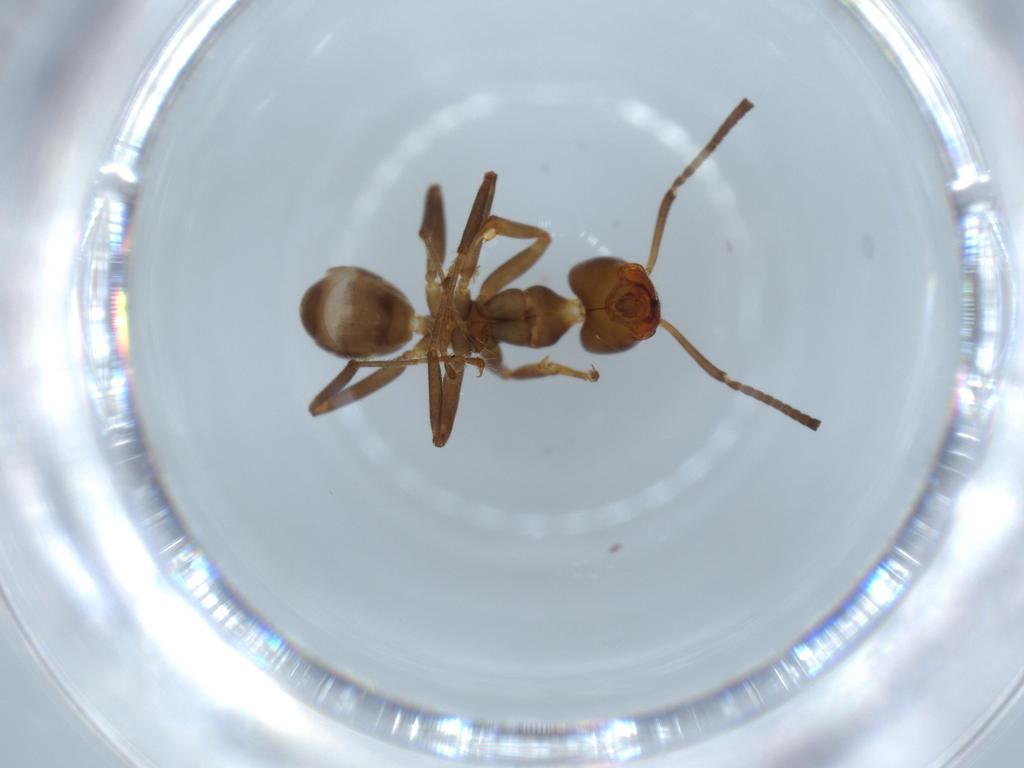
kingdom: Animalia
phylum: Arthropoda
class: Insecta
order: Hymenoptera
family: Formicidae
